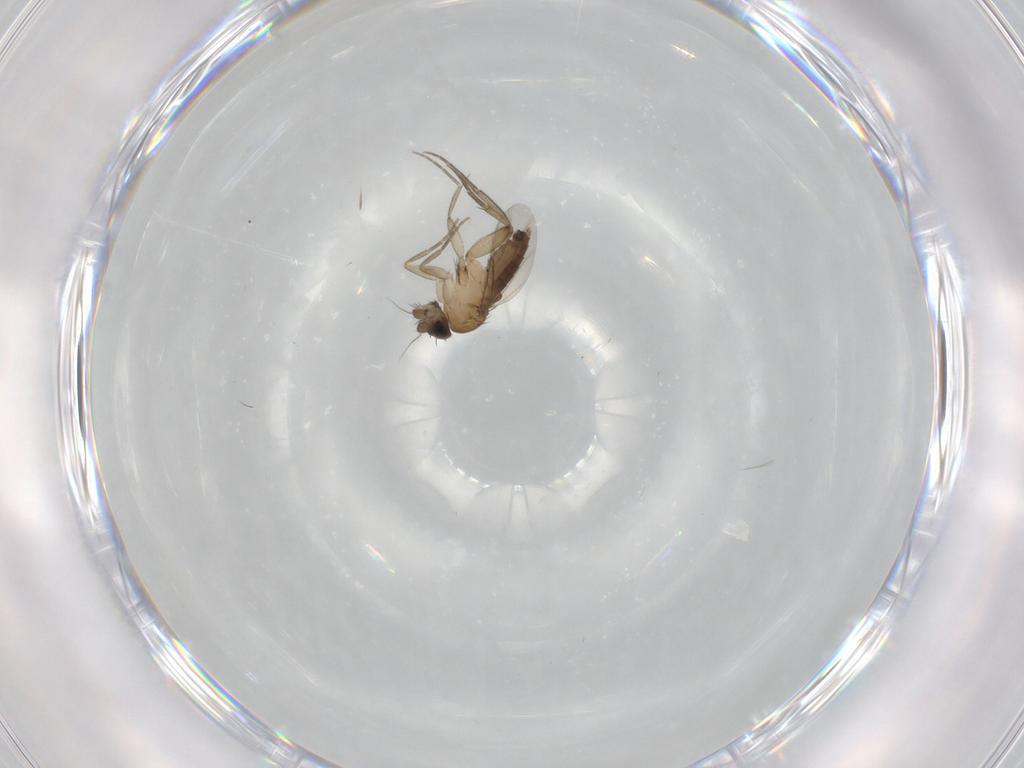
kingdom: Animalia
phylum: Arthropoda
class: Insecta
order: Diptera
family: Phoridae
